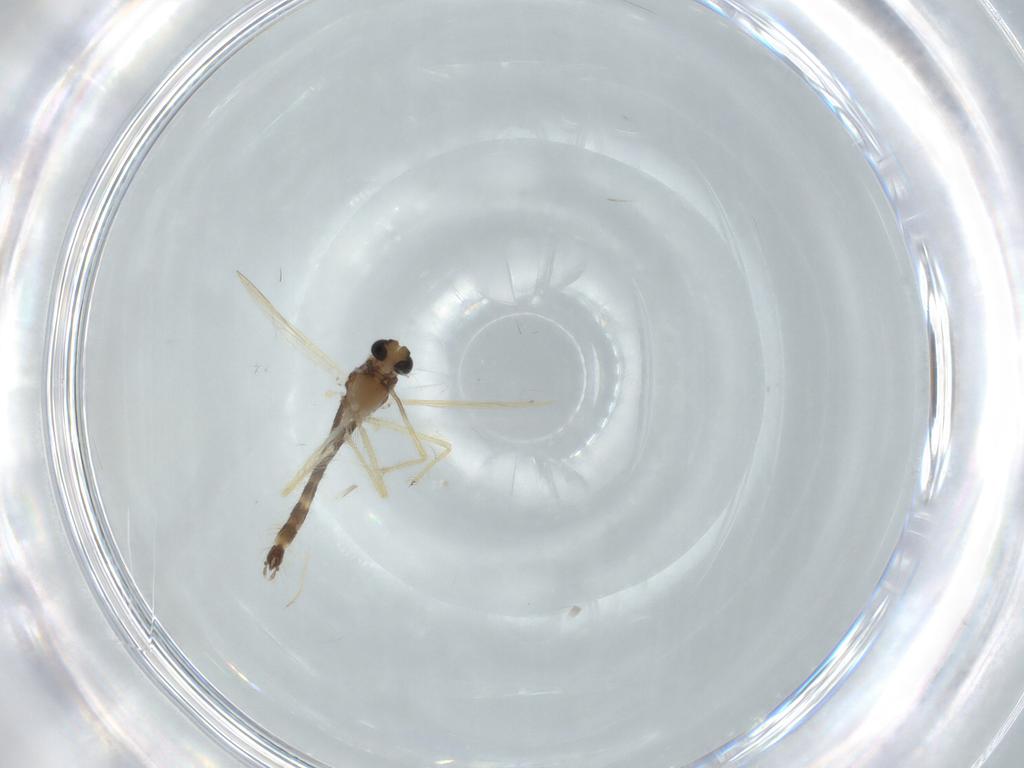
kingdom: Animalia
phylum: Arthropoda
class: Insecta
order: Diptera
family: Chironomidae
